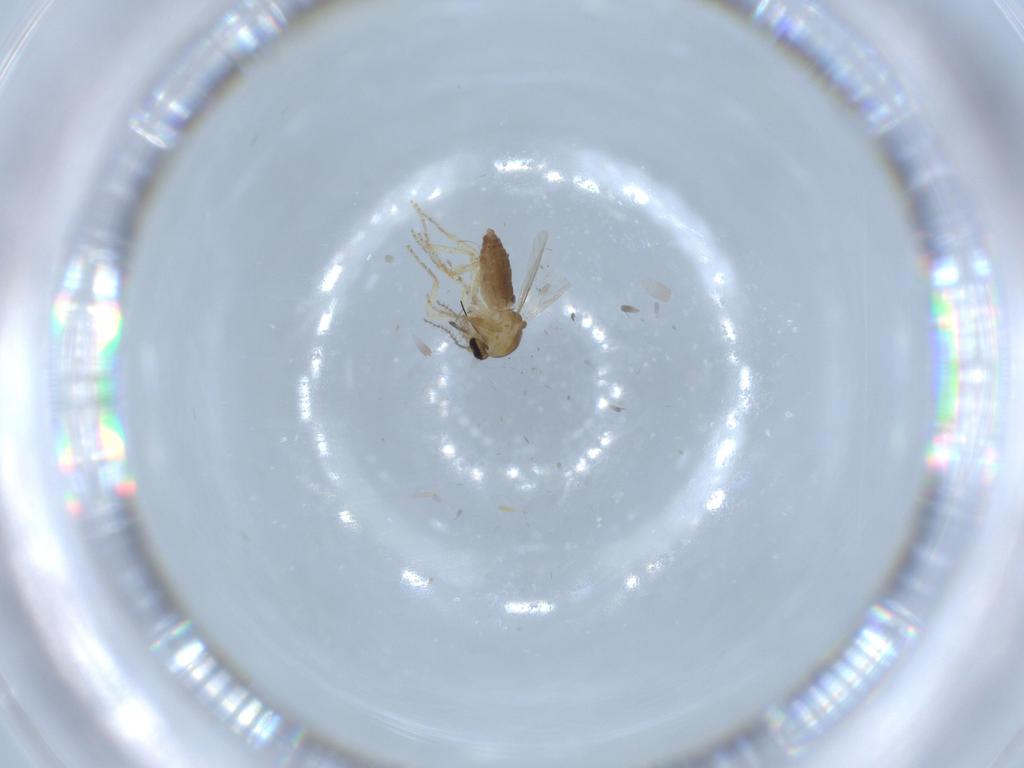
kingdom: Animalia
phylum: Arthropoda
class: Insecta
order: Diptera
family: Ceratopogonidae
